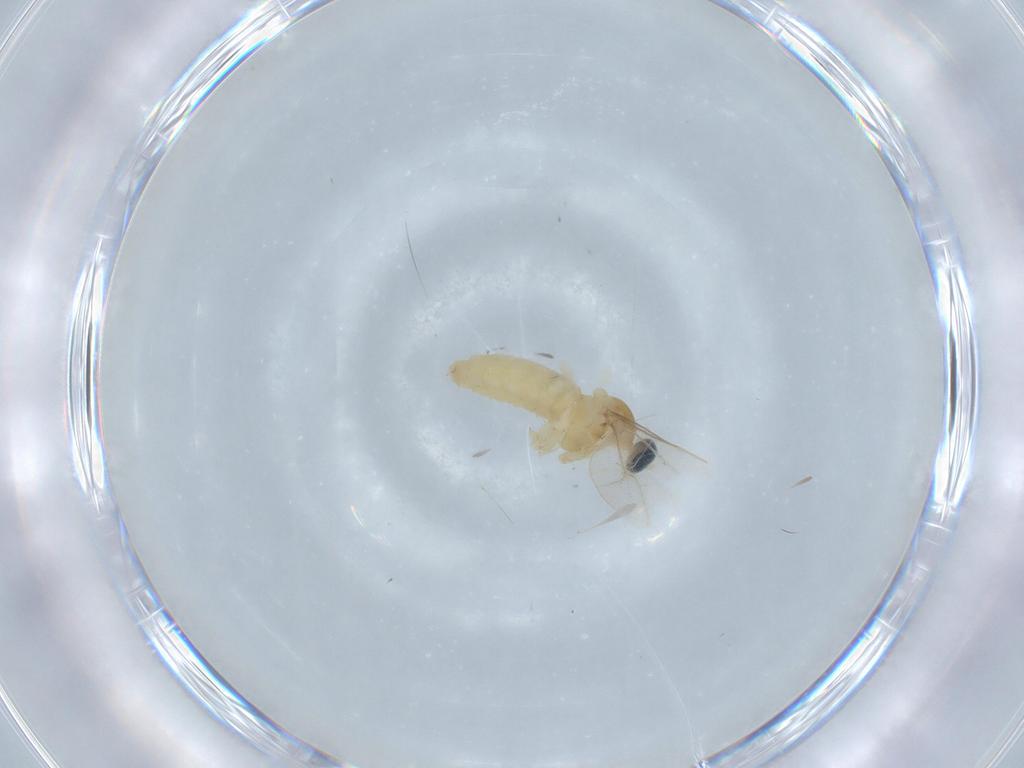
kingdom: Animalia
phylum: Arthropoda
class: Insecta
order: Diptera
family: Cecidomyiidae
